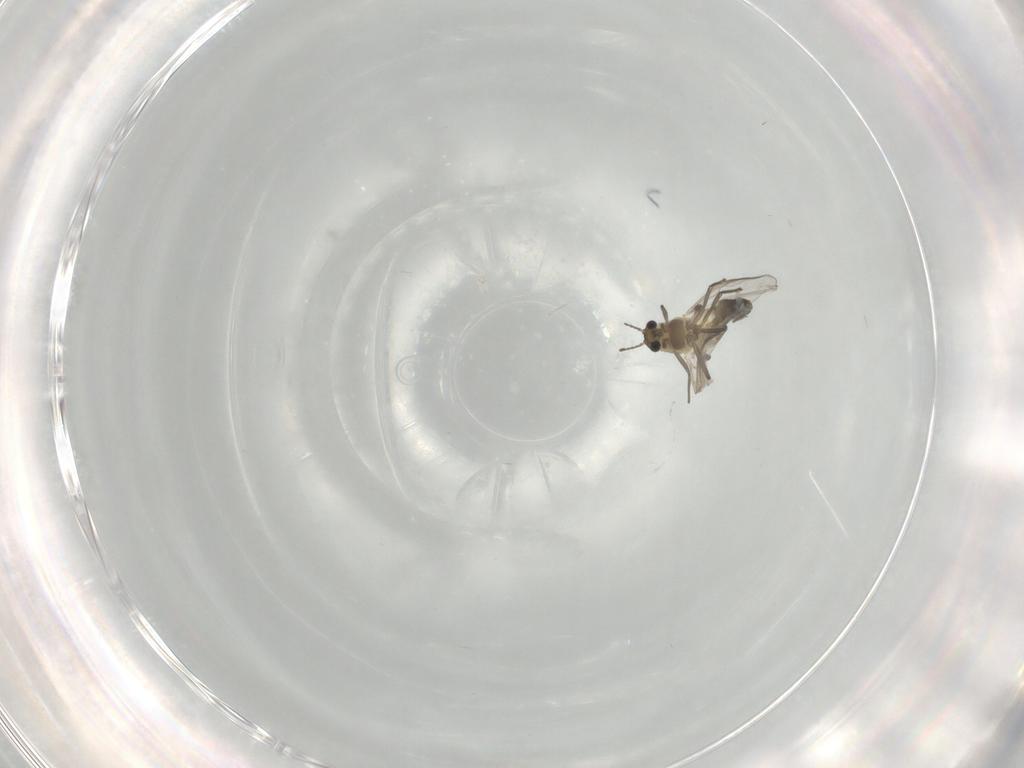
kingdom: Animalia
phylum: Arthropoda
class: Insecta
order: Diptera
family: Chironomidae
